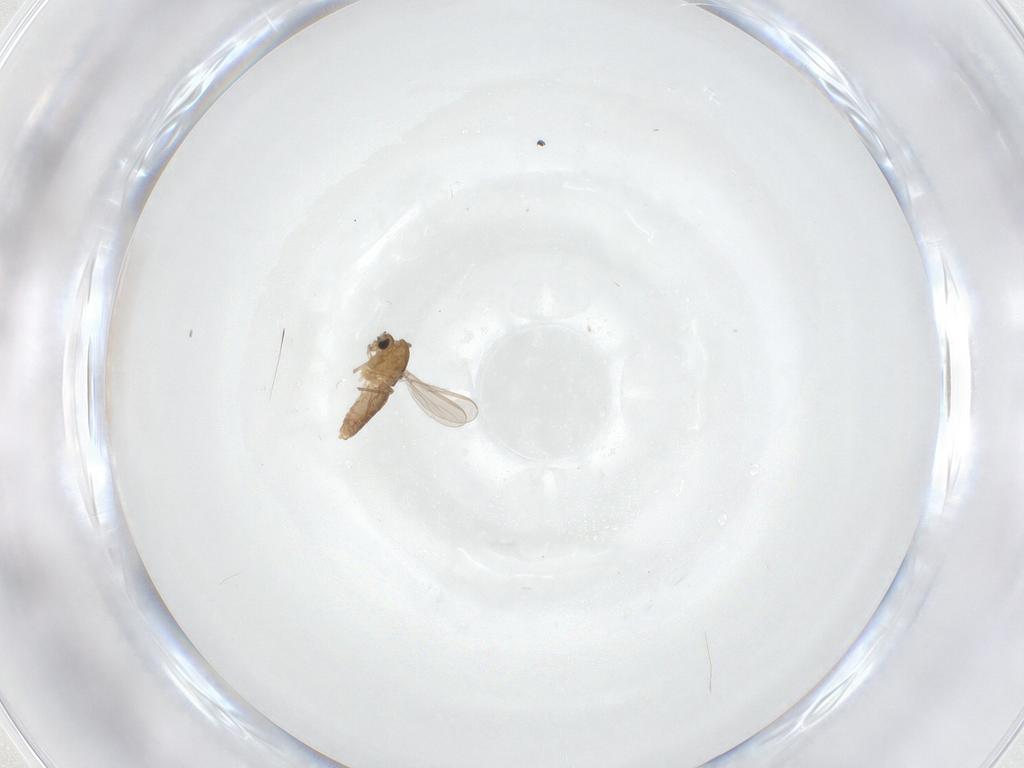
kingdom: Animalia
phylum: Arthropoda
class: Insecta
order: Diptera
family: Chironomidae
